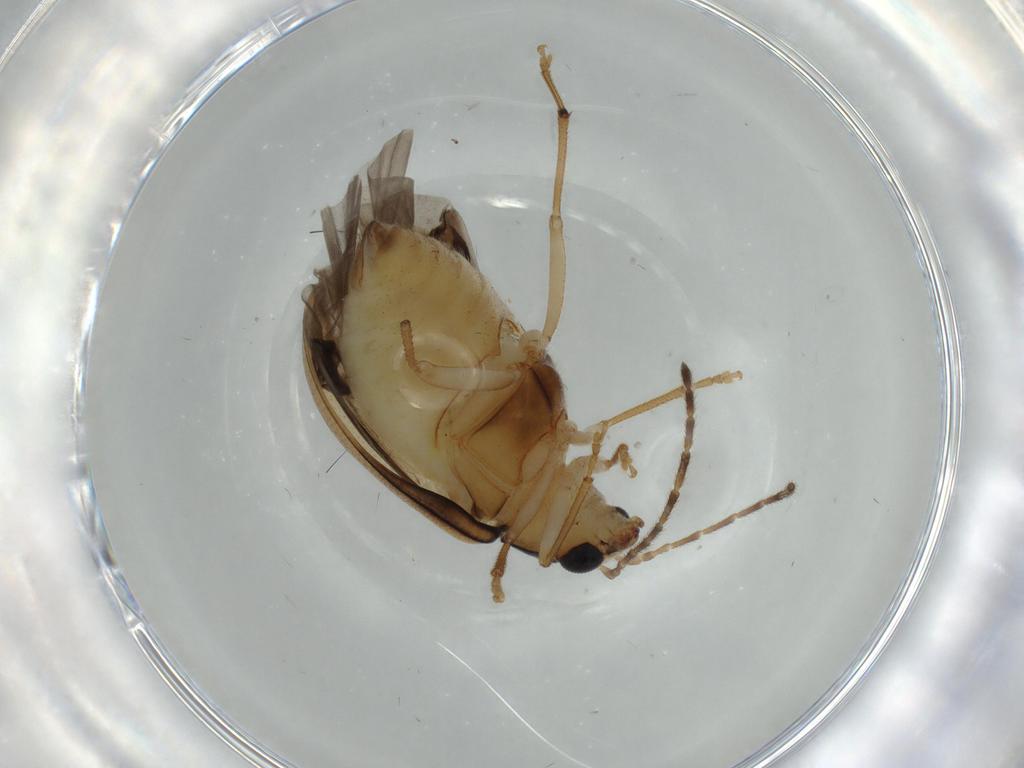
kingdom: Animalia
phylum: Arthropoda
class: Insecta
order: Coleoptera
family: Chrysomelidae
